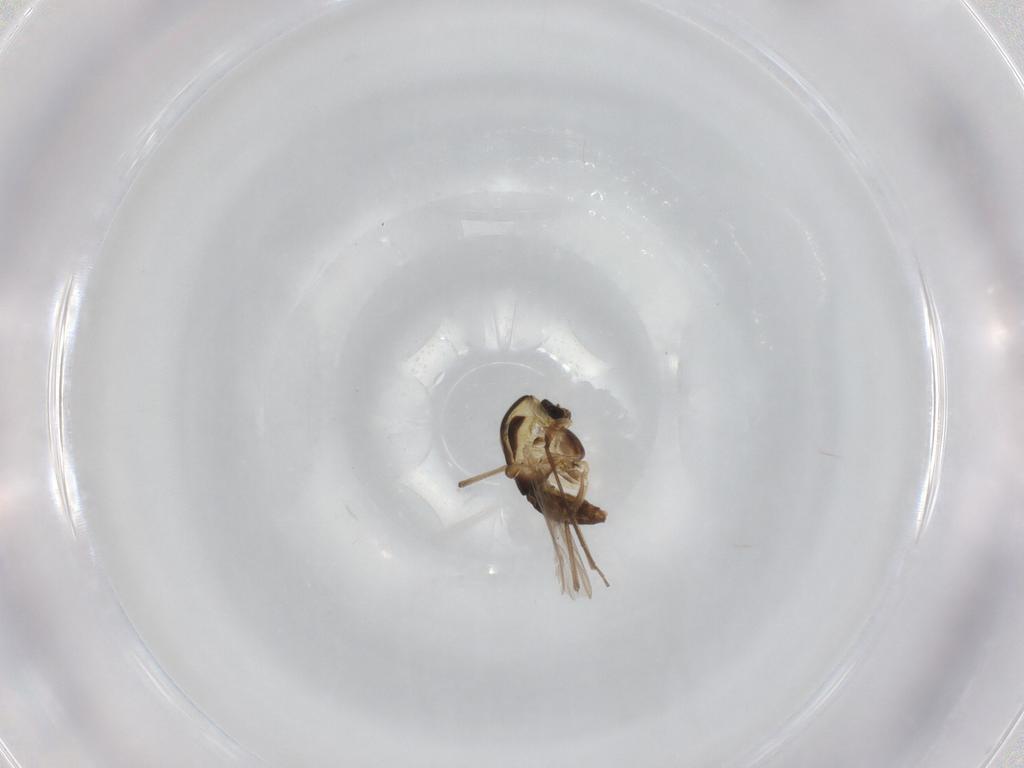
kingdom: Animalia
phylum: Arthropoda
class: Insecta
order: Diptera
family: Chironomidae
